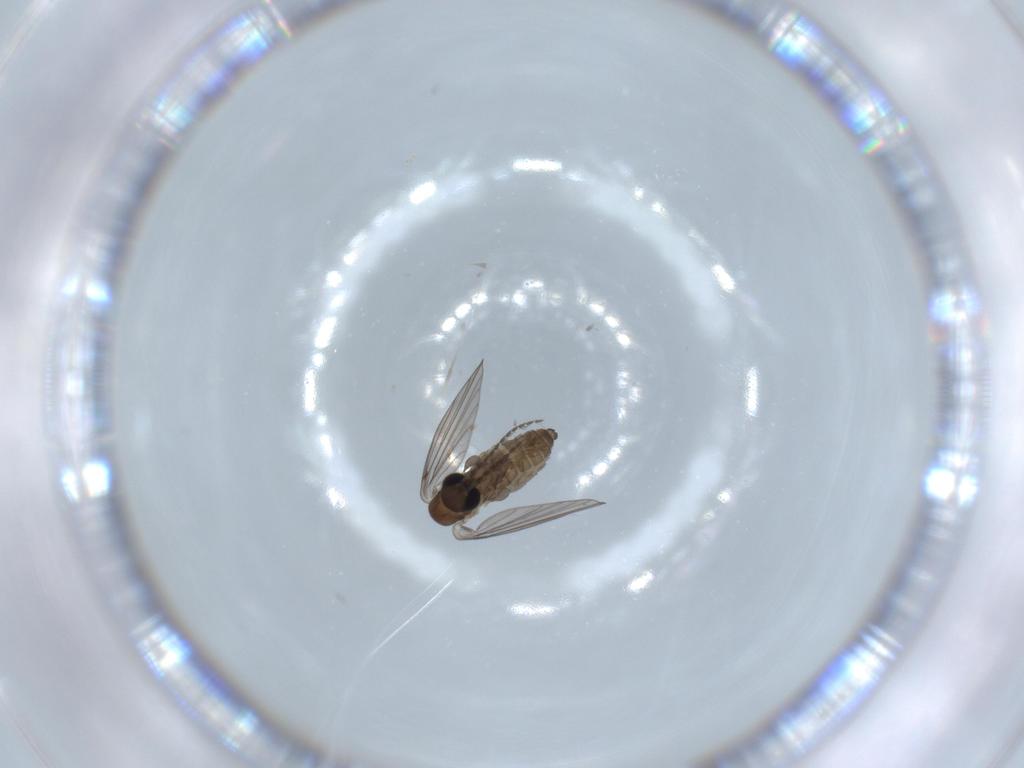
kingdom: Animalia
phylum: Arthropoda
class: Insecta
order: Diptera
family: Psychodidae
